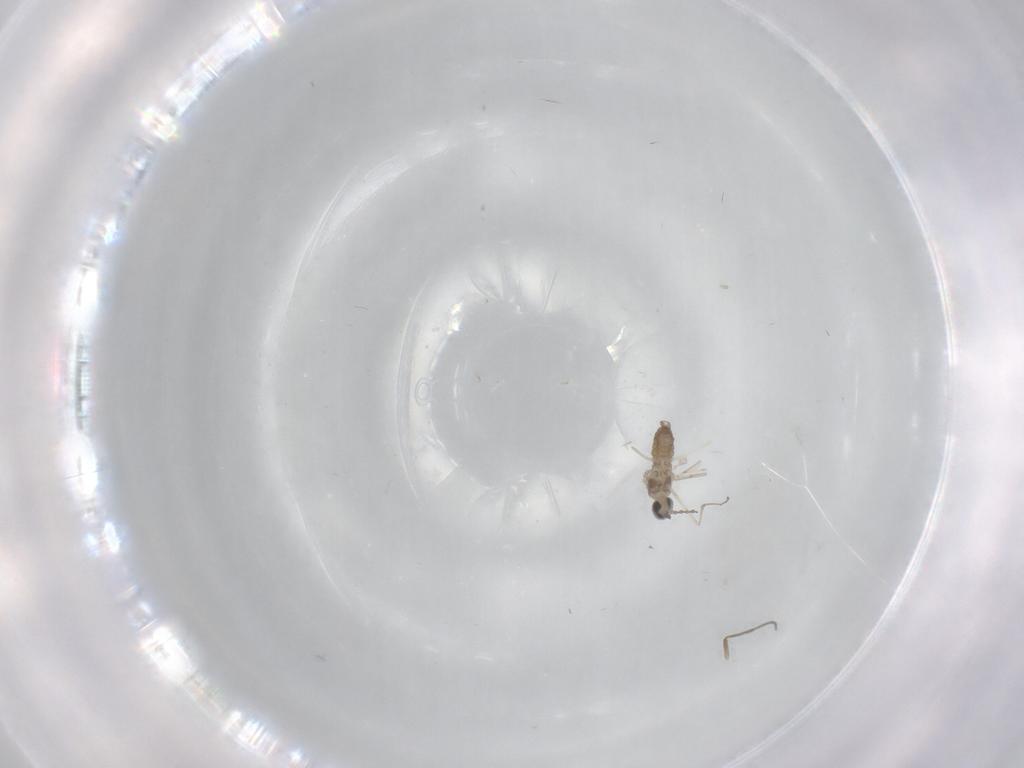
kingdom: Animalia
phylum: Arthropoda
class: Insecta
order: Diptera
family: Cecidomyiidae
